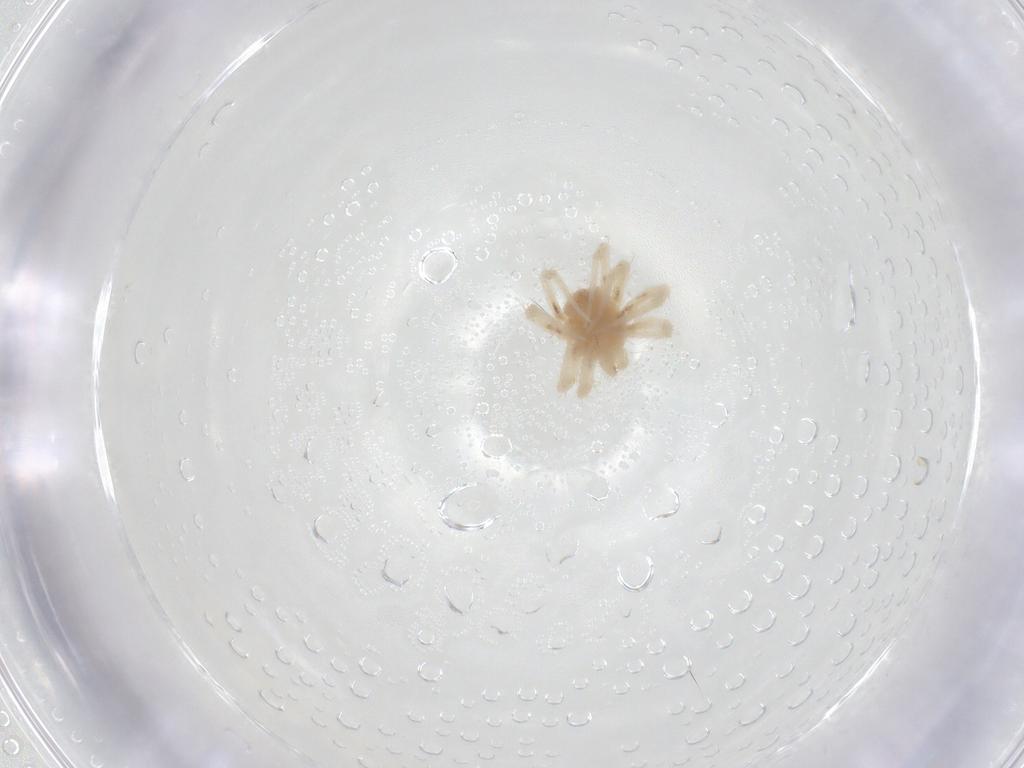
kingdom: Animalia
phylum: Arthropoda
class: Arachnida
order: Trombidiformes
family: Anystidae
